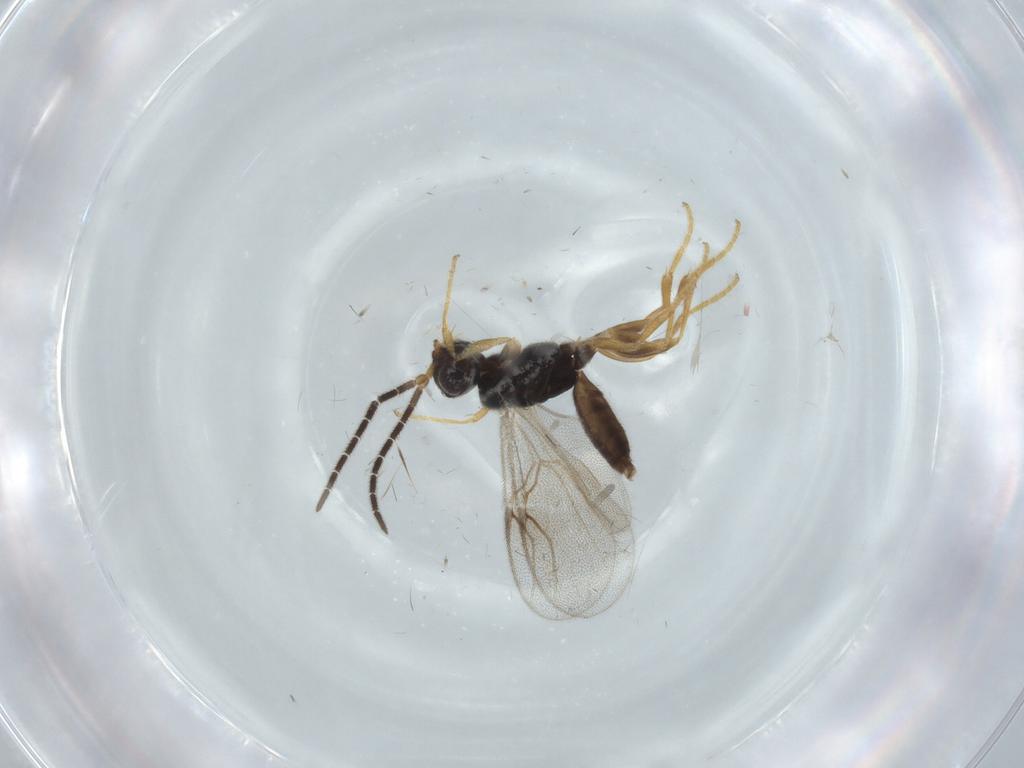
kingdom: Animalia
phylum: Arthropoda
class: Insecta
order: Hymenoptera
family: Dryinidae
